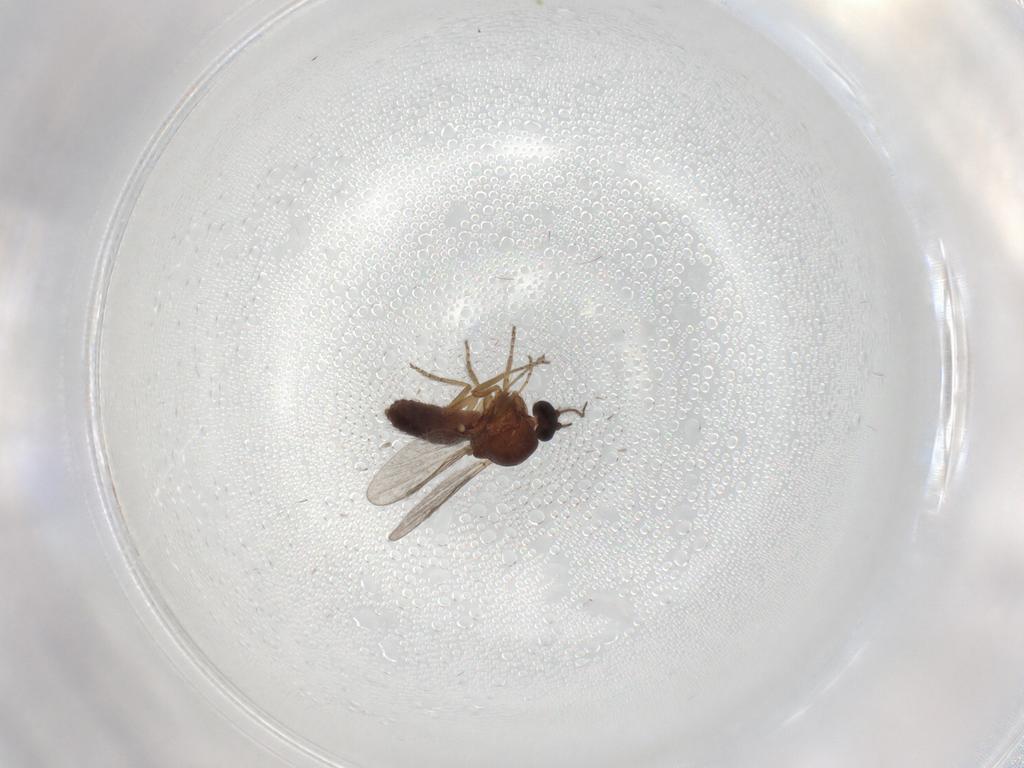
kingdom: Animalia
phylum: Arthropoda
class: Insecta
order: Diptera
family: Ceratopogonidae
